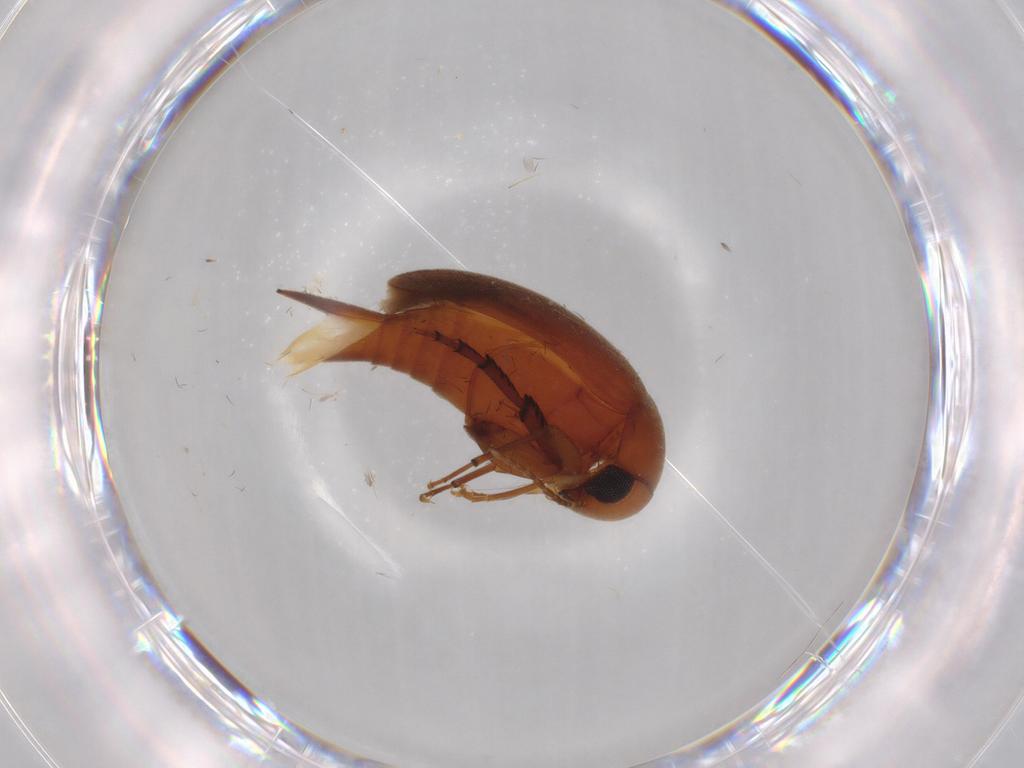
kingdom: Animalia
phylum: Arthropoda
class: Insecta
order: Coleoptera
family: Mordellidae
